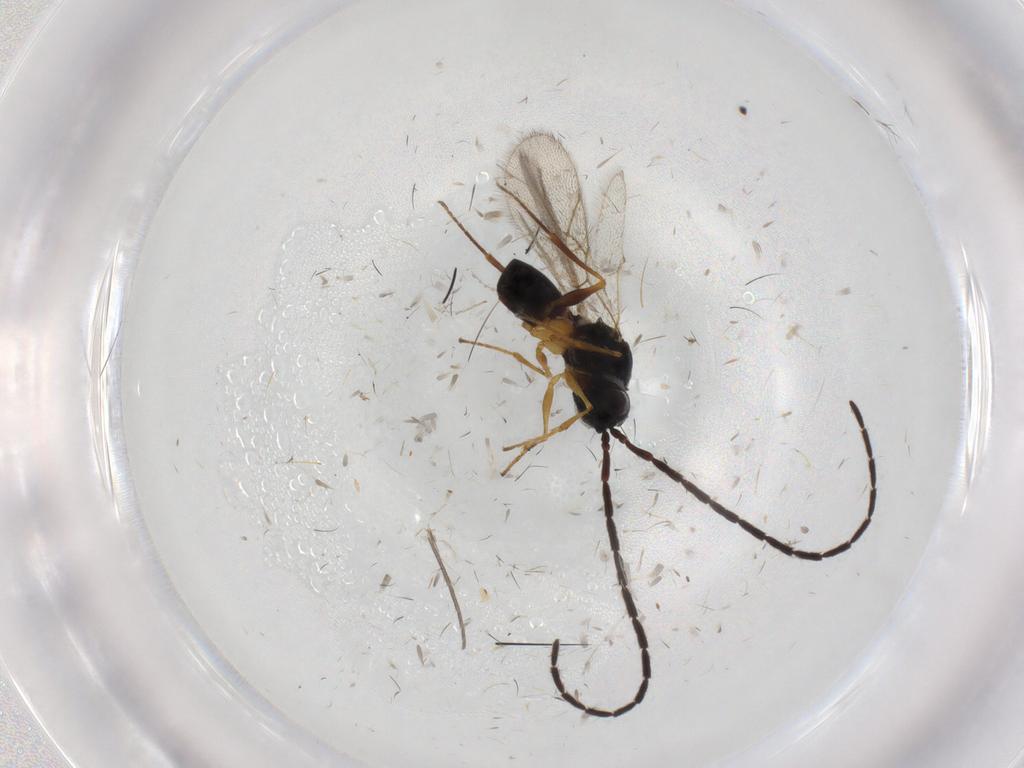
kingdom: Animalia
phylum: Arthropoda
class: Insecta
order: Hymenoptera
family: Figitidae
